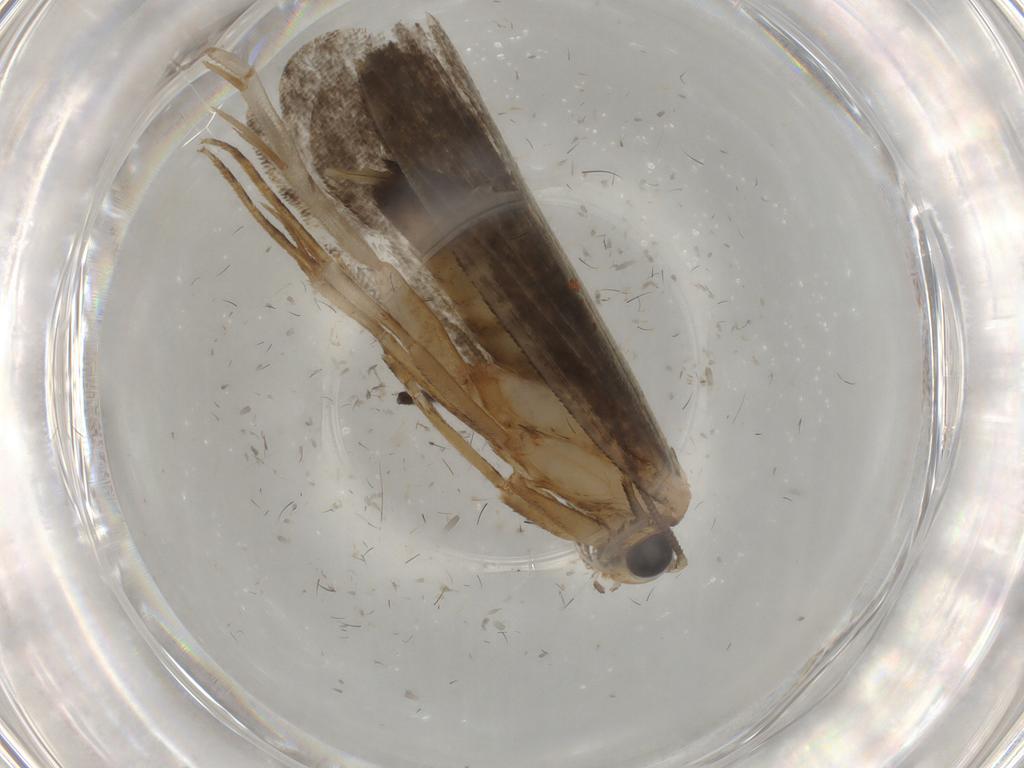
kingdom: Animalia
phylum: Arthropoda
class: Insecta
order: Lepidoptera
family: Tineidae
